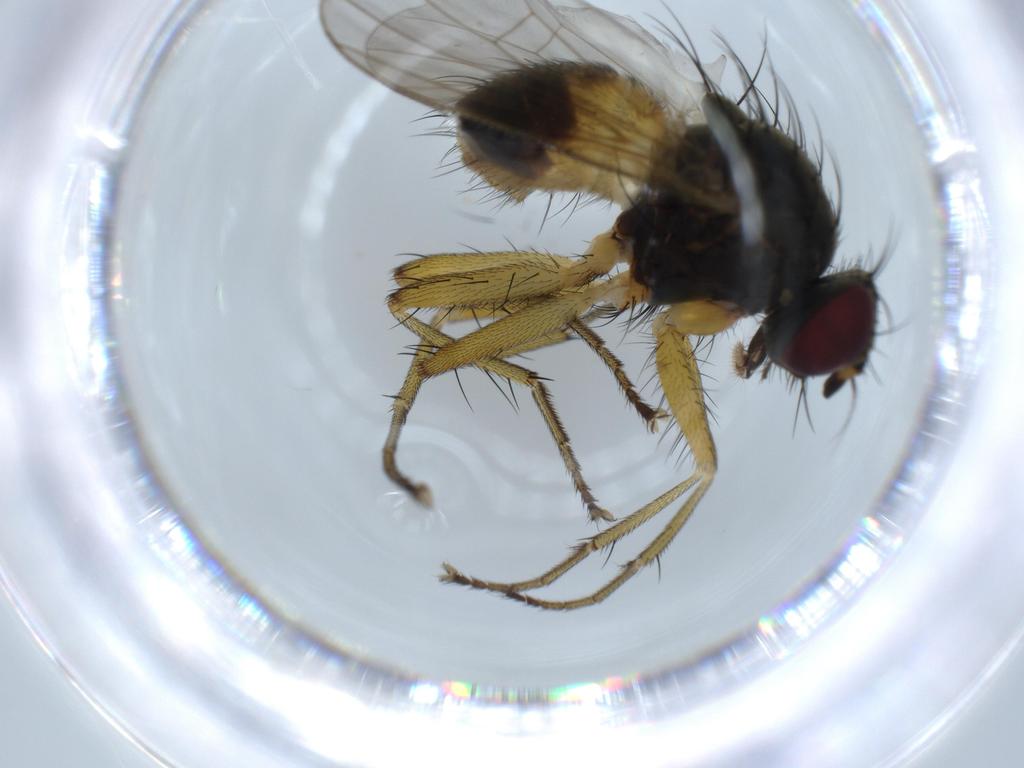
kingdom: Animalia
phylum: Arthropoda
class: Insecta
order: Diptera
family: Muscidae
